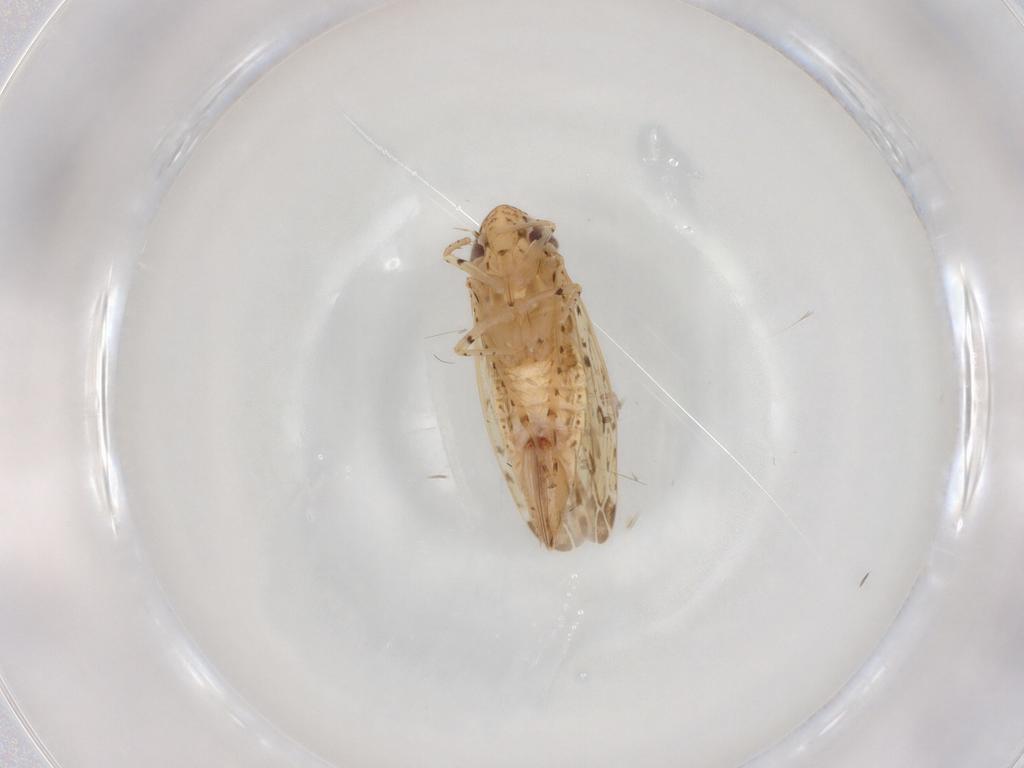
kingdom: Animalia
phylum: Arthropoda
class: Insecta
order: Hemiptera
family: Cicadellidae
